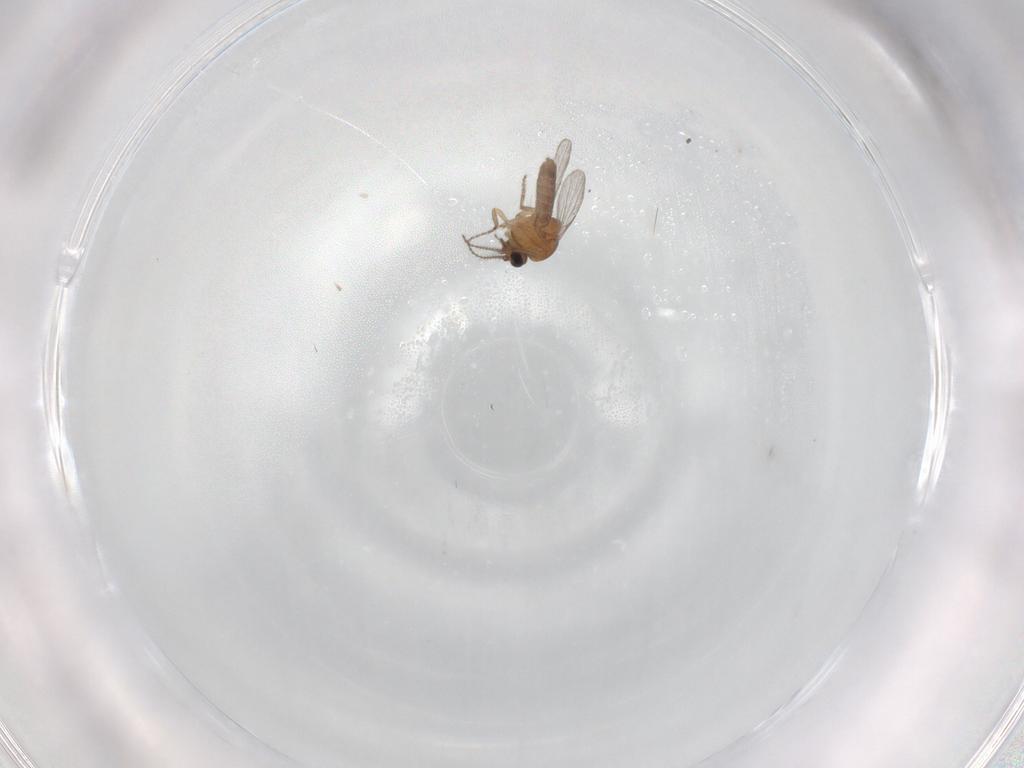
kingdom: Animalia
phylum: Arthropoda
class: Insecta
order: Diptera
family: Ceratopogonidae
